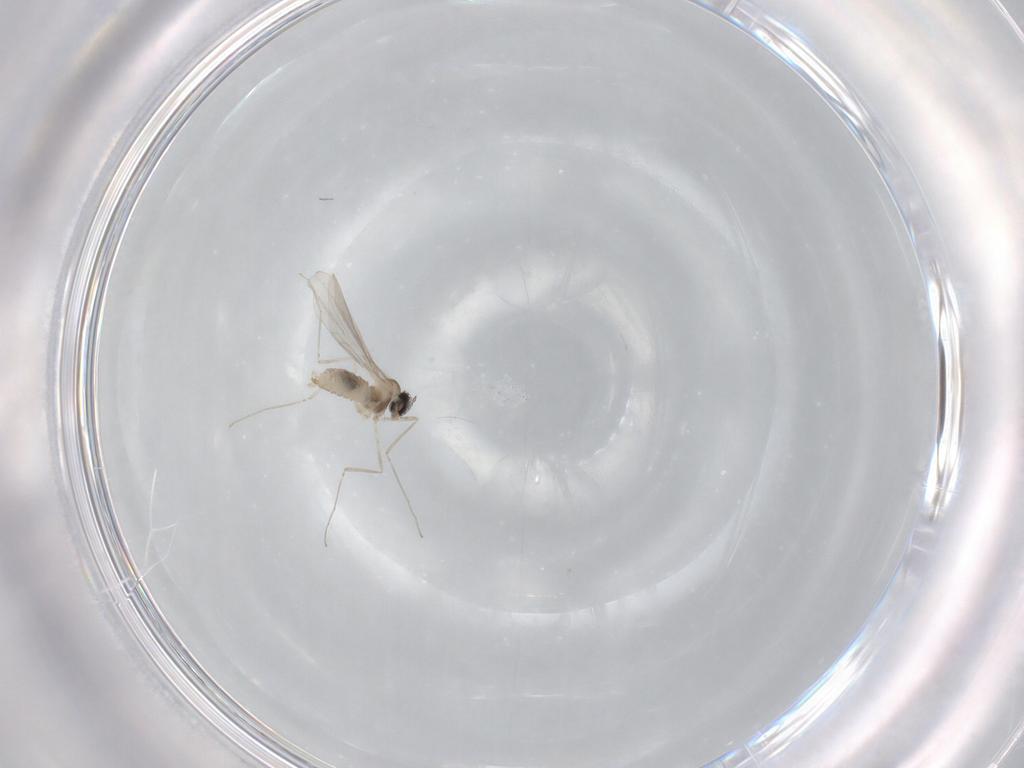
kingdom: Animalia
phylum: Arthropoda
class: Insecta
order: Diptera
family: Cecidomyiidae
